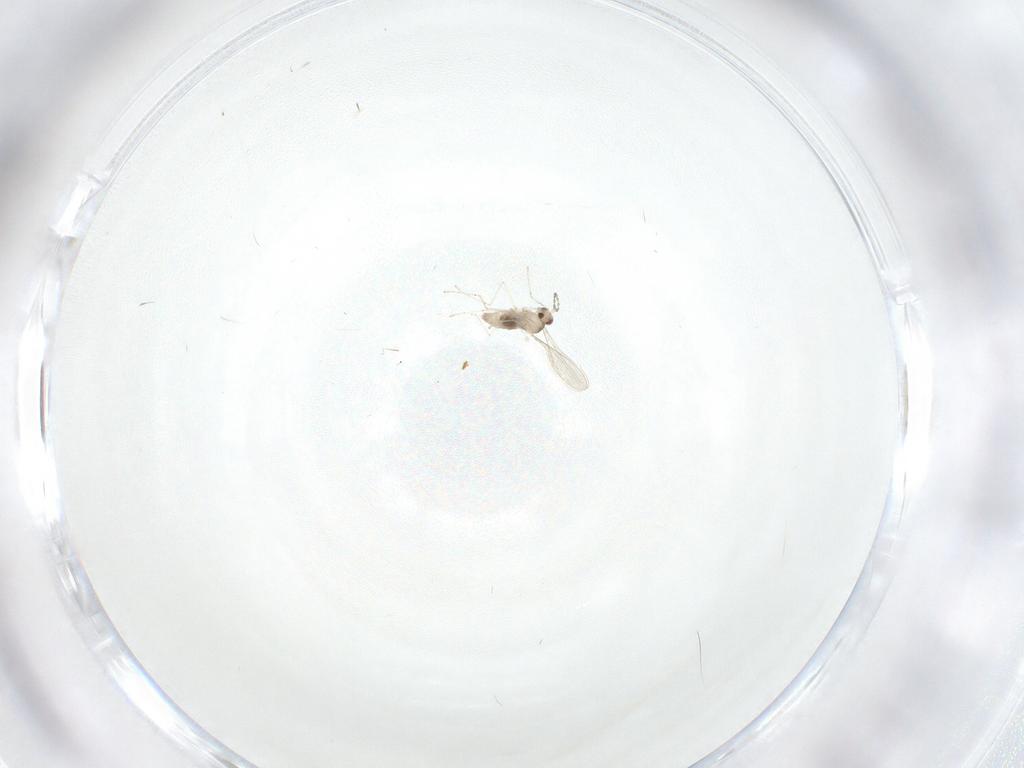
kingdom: Animalia
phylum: Arthropoda
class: Insecta
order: Diptera
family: Cecidomyiidae
